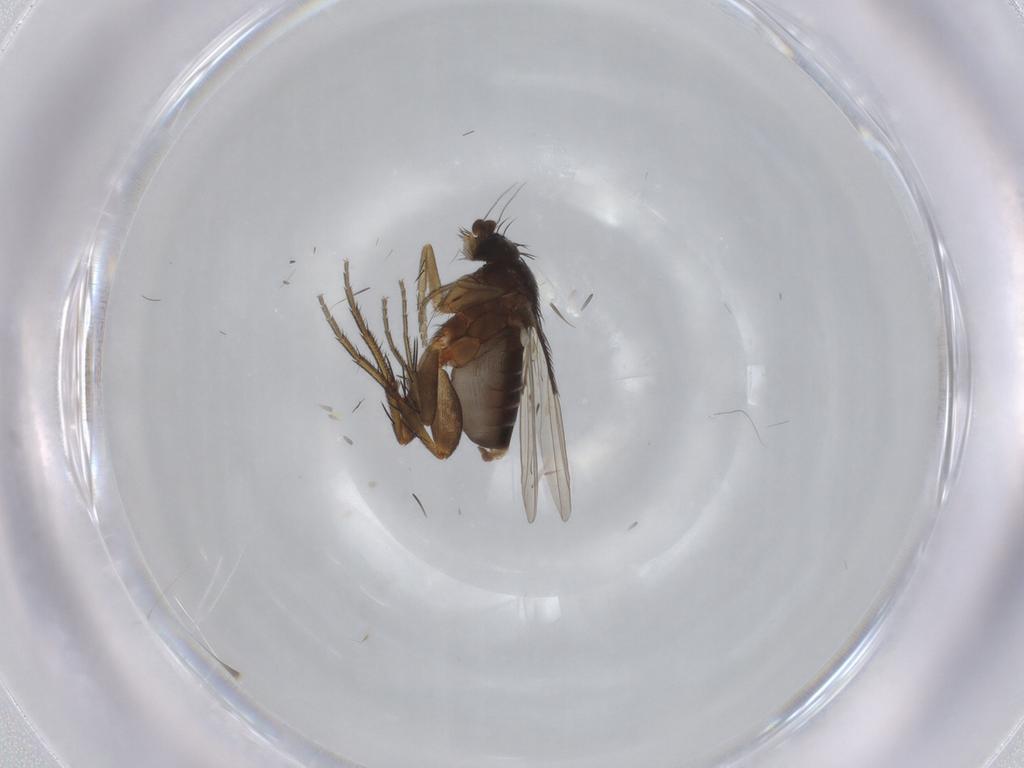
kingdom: Animalia
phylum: Arthropoda
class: Insecta
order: Diptera
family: Phoridae
